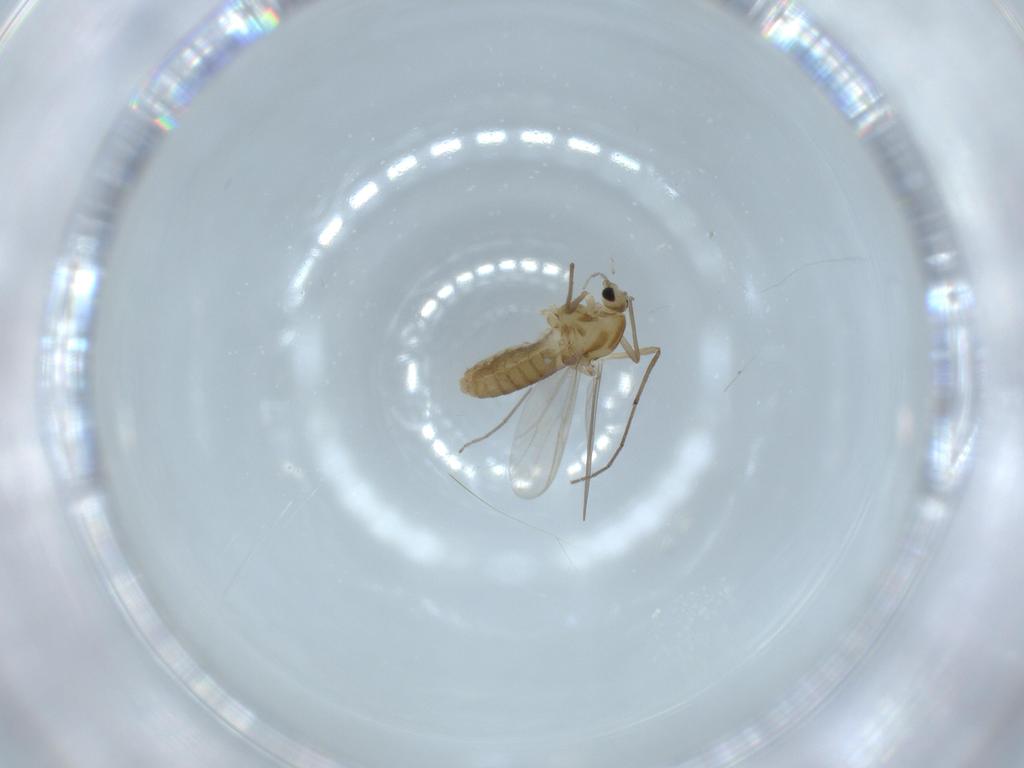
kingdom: Animalia
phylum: Arthropoda
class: Insecta
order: Diptera
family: Chironomidae
